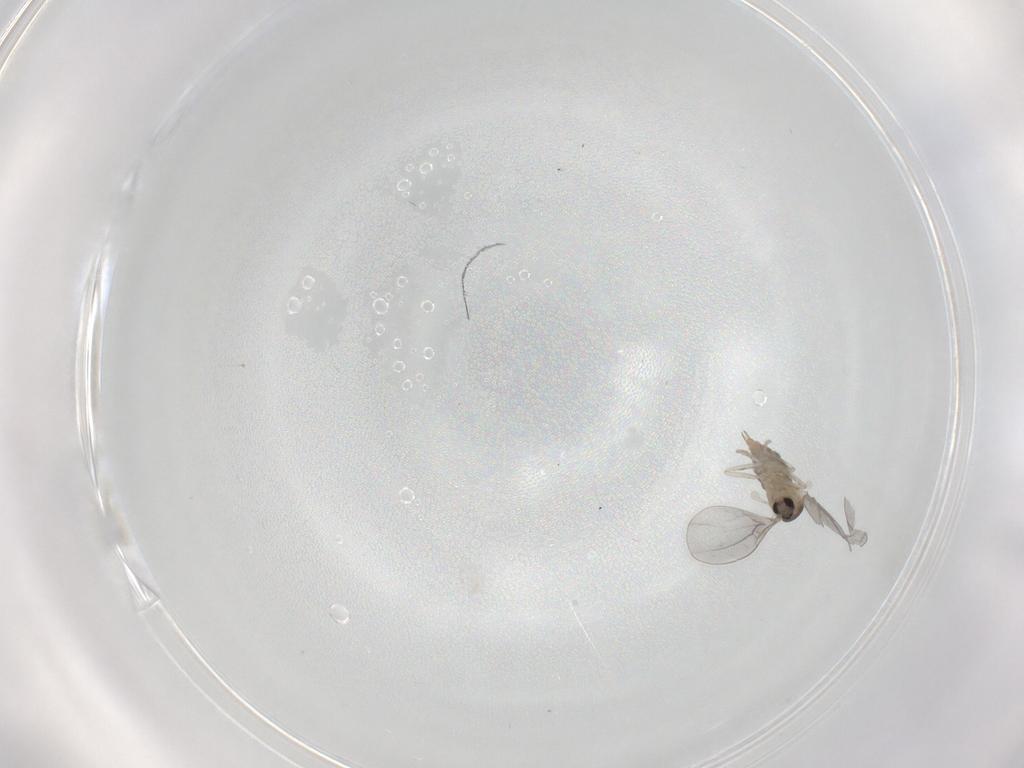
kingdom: Animalia
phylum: Arthropoda
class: Insecta
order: Diptera
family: Cecidomyiidae
